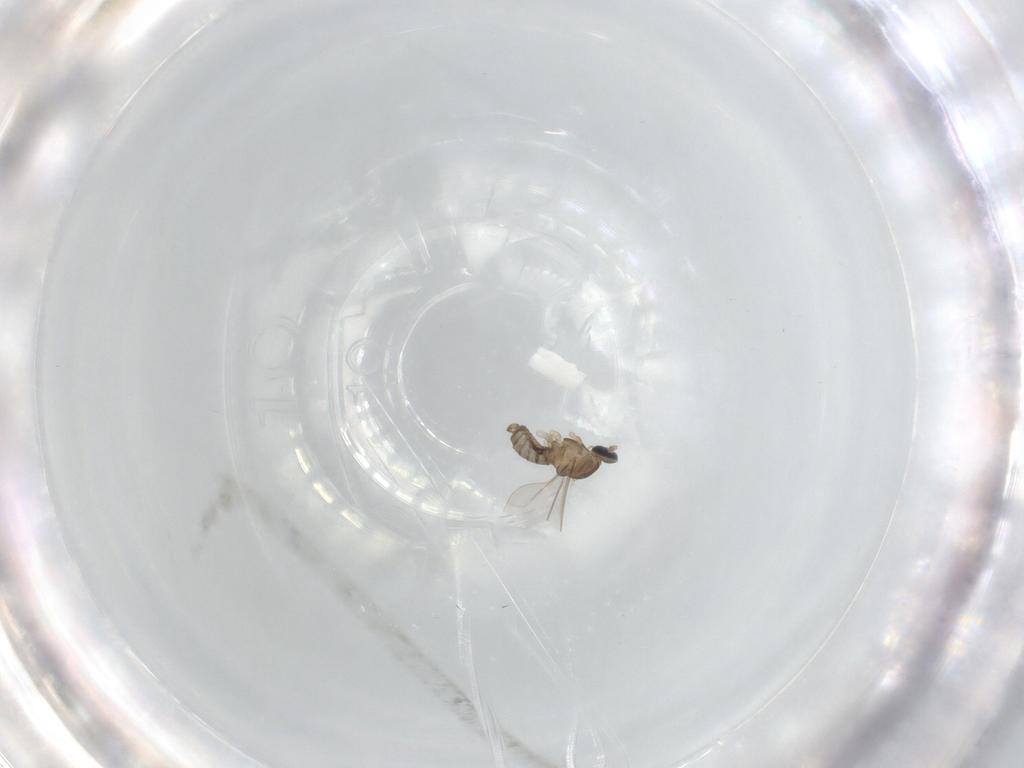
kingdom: Animalia
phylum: Arthropoda
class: Insecta
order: Diptera
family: Cecidomyiidae
